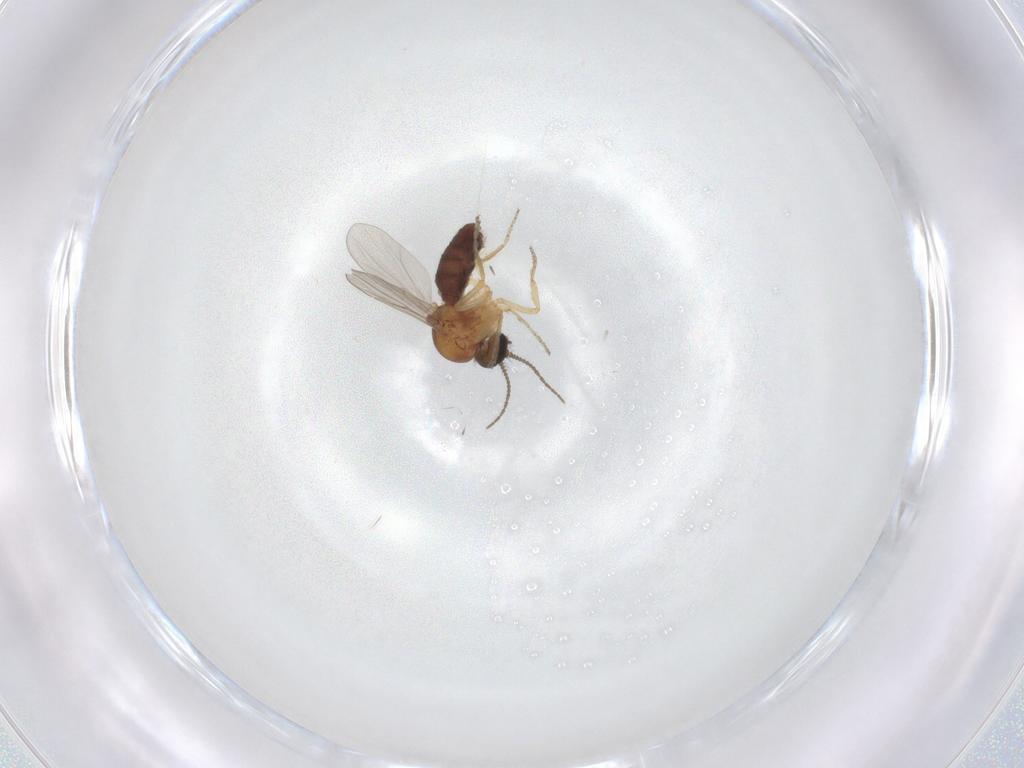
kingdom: Animalia
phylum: Arthropoda
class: Insecta
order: Diptera
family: Ceratopogonidae
